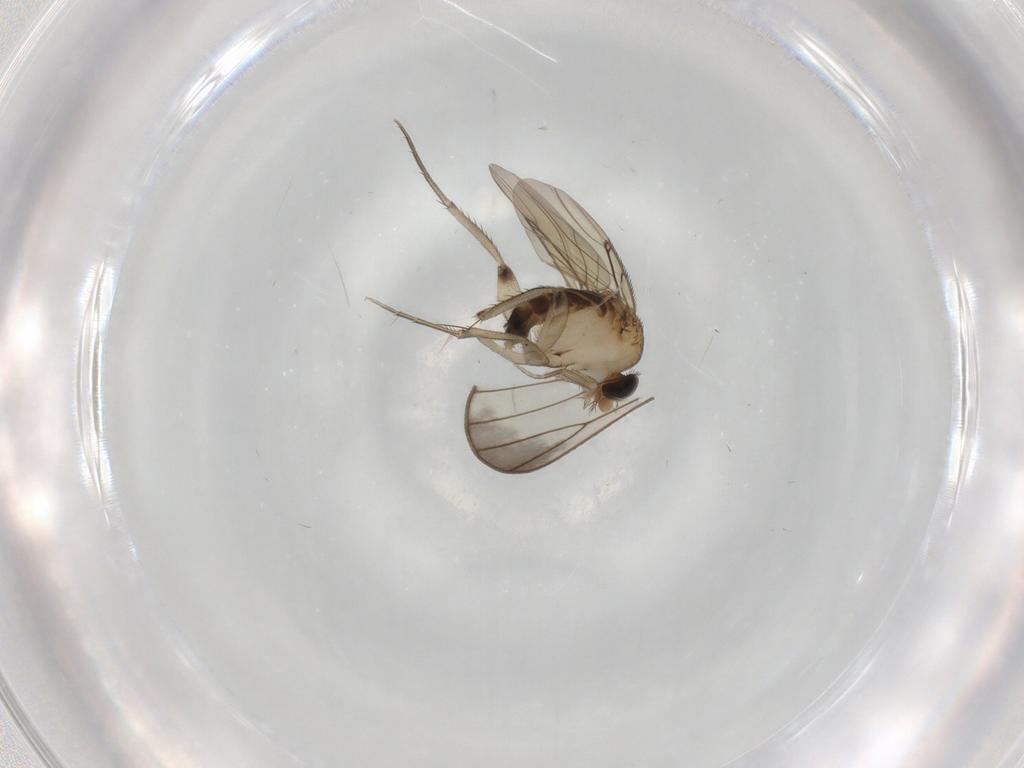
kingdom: Animalia
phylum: Arthropoda
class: Insecta
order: Diptera
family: Phoridae
